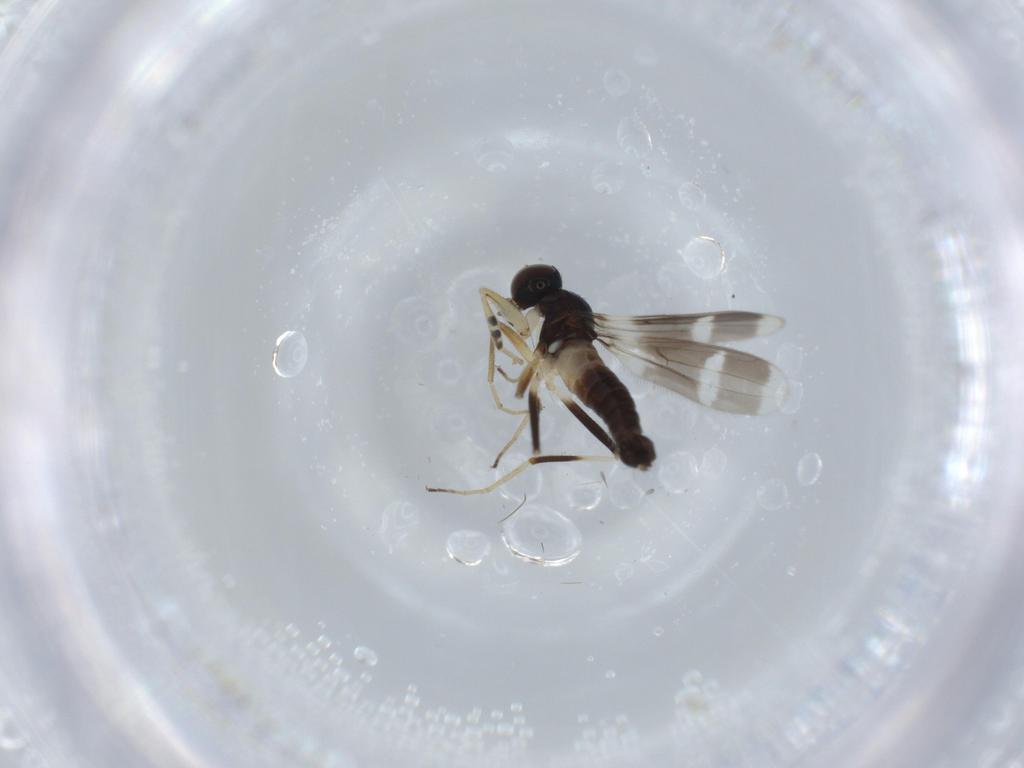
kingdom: Animalia
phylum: Arthropoda
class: Insecta
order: Diptera
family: Hybotidae
